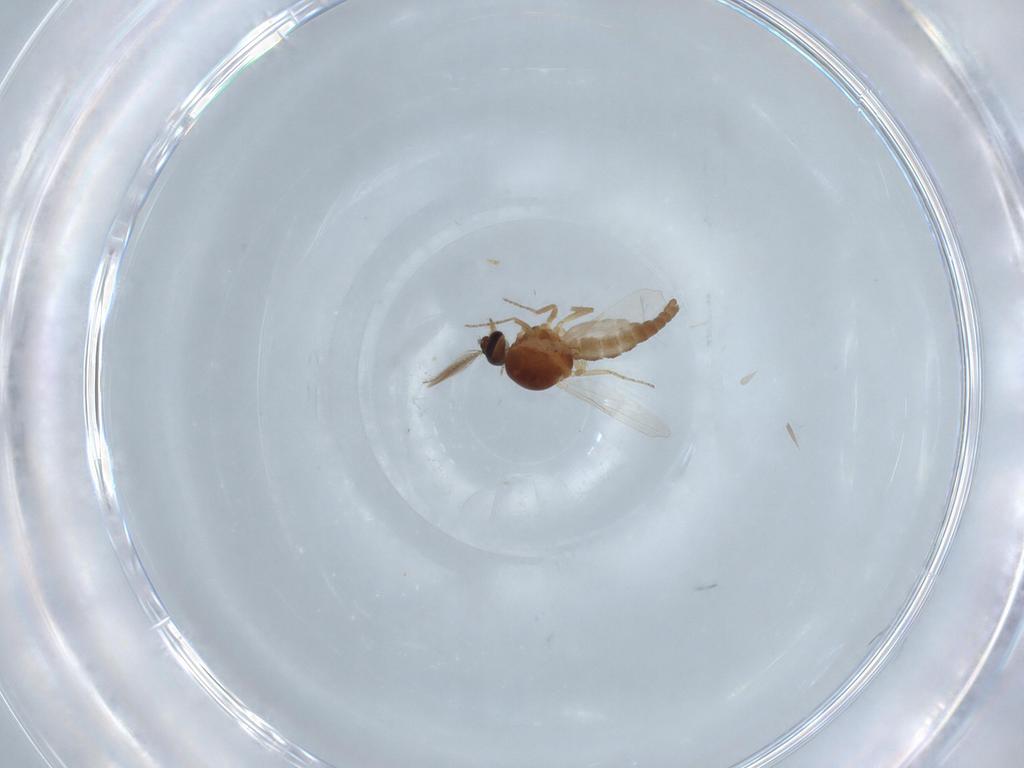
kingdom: Animalia
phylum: Arthropoda
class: Insecta
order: Diptera
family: Ceratopogonidae
